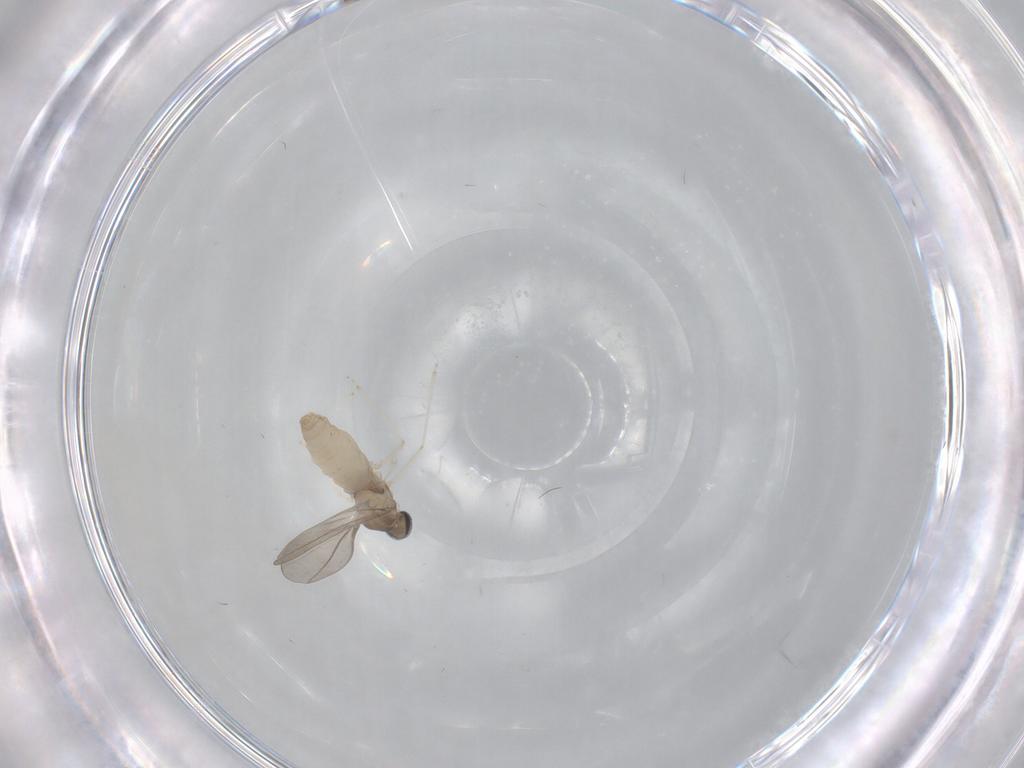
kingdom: Animalia
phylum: Arthropoda
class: Insecta
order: Diptera
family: Cecidomyiidae
